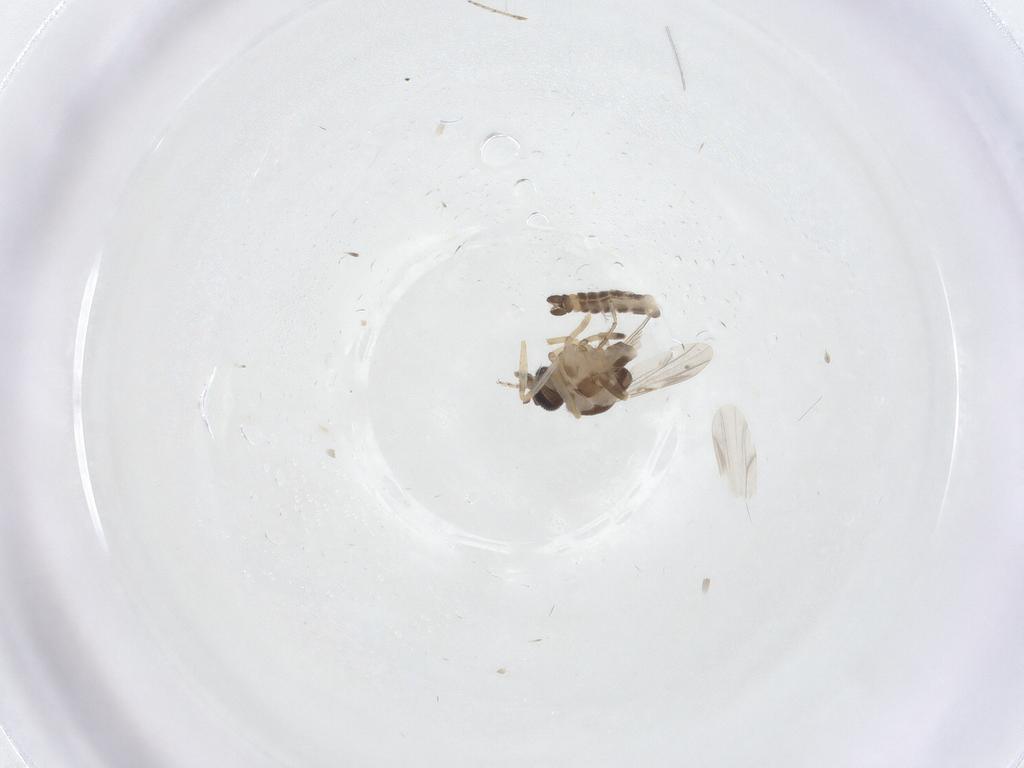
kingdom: Animalia
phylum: Arthropoda
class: Insecta
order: Diptera
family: Ceratopogonidae
